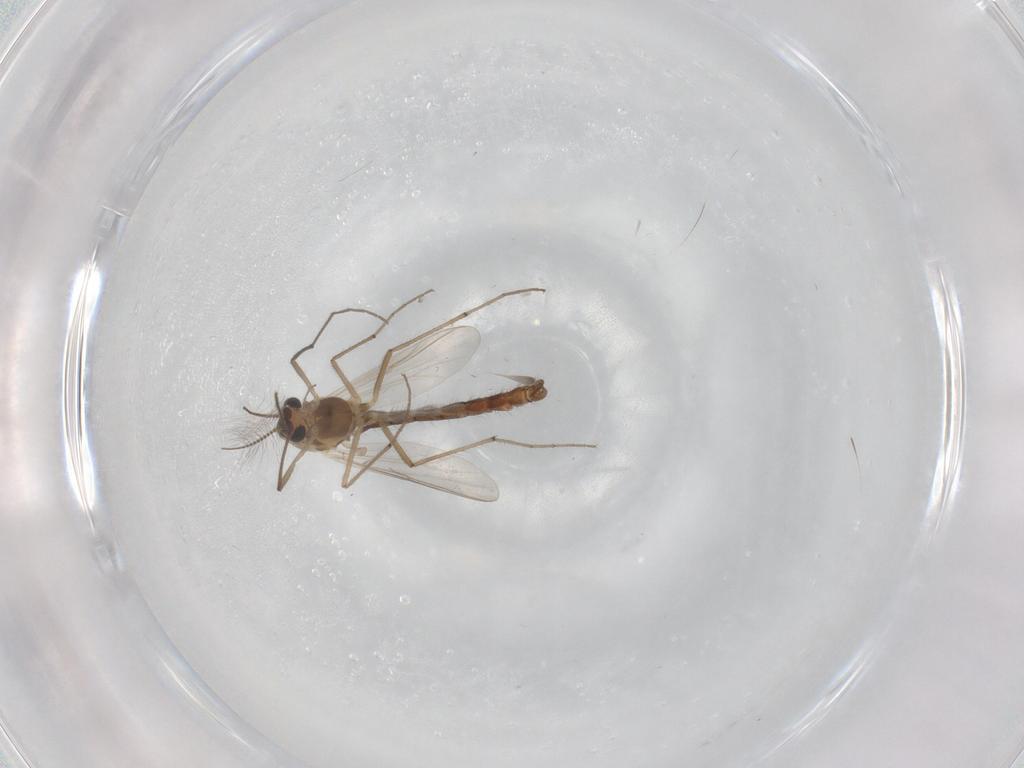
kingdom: Animalia
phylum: Arthropoda
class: Insecta
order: Diptera
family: Chironomidae
